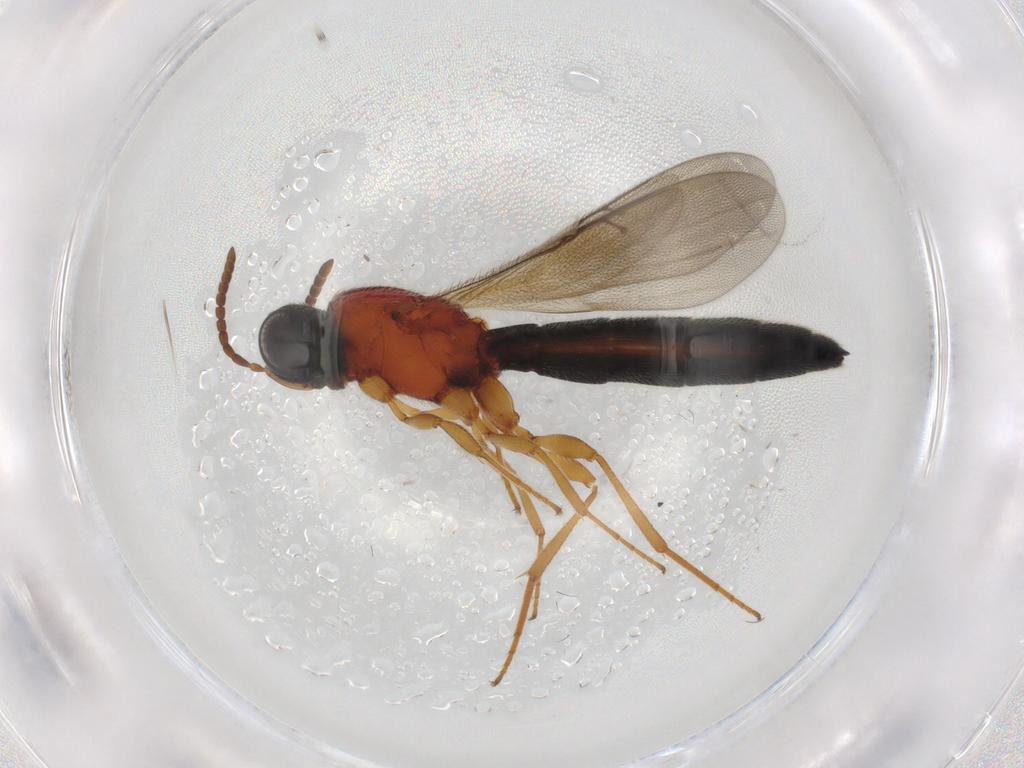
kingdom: Animalia
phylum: Arthropoda
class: Insecta
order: Hymenoptera
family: Scelionidae
